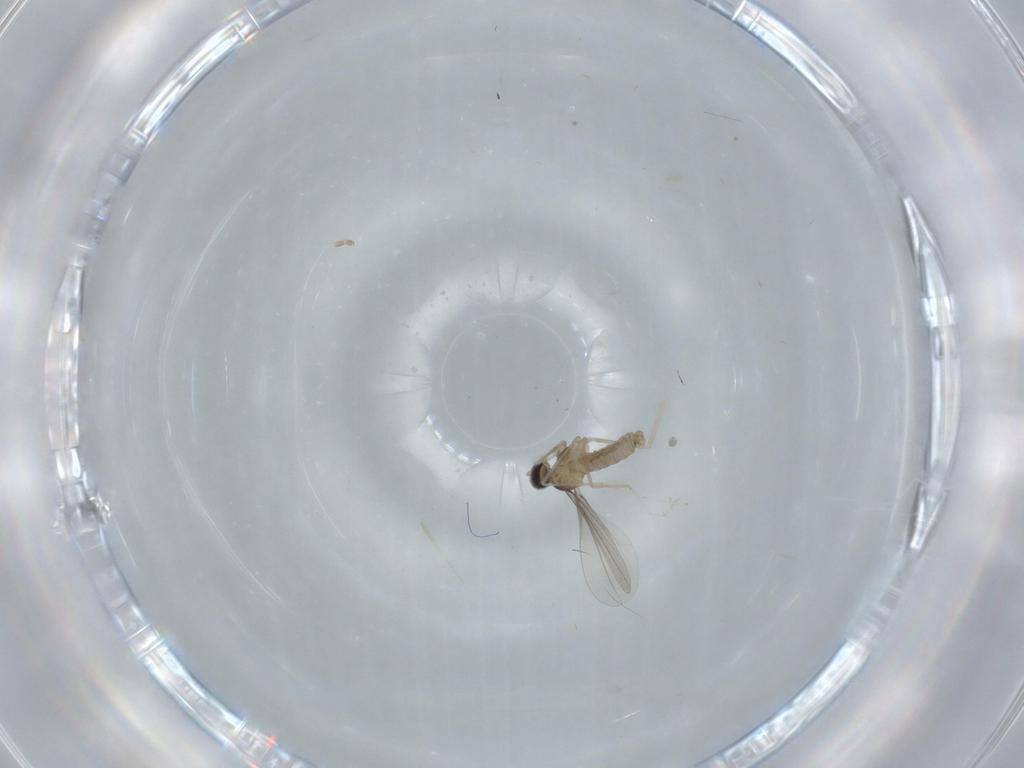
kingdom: Animalia
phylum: Arthropoda
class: Insecta
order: Diptera
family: Cecidomyiidae
